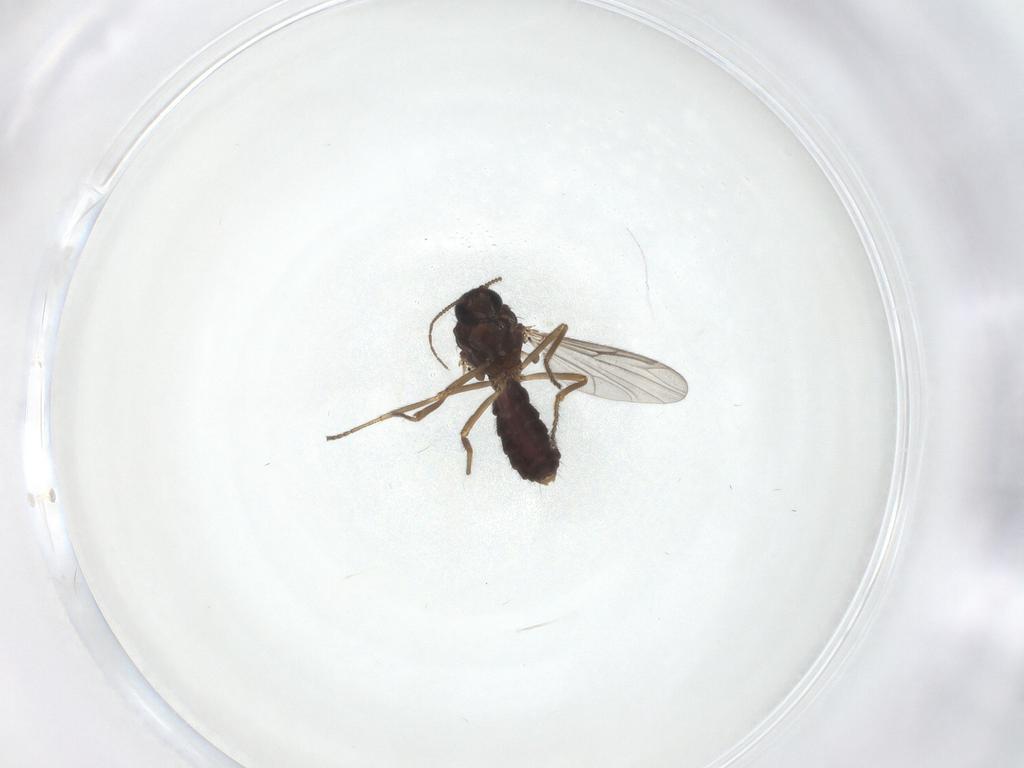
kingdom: Animalia
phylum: Arthropoda
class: Insecta
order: Diptera
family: Ceratopogonidae
